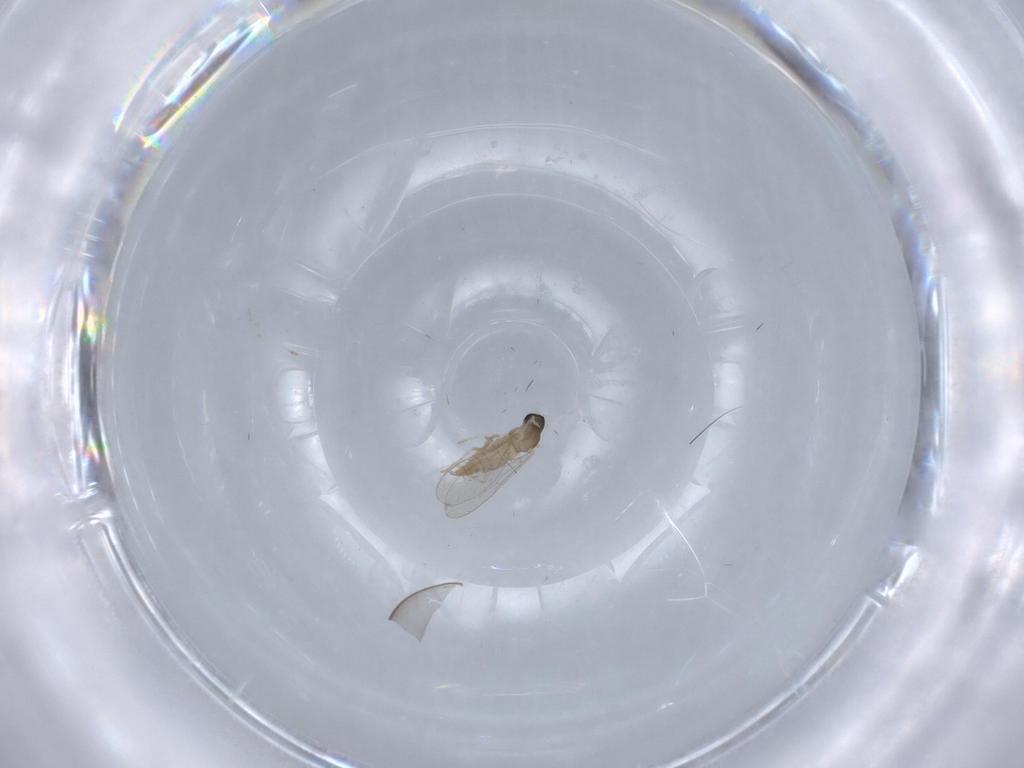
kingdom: Animalia
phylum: Arthropoda
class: Insecta
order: Diptera
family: Cecidomyiidae
